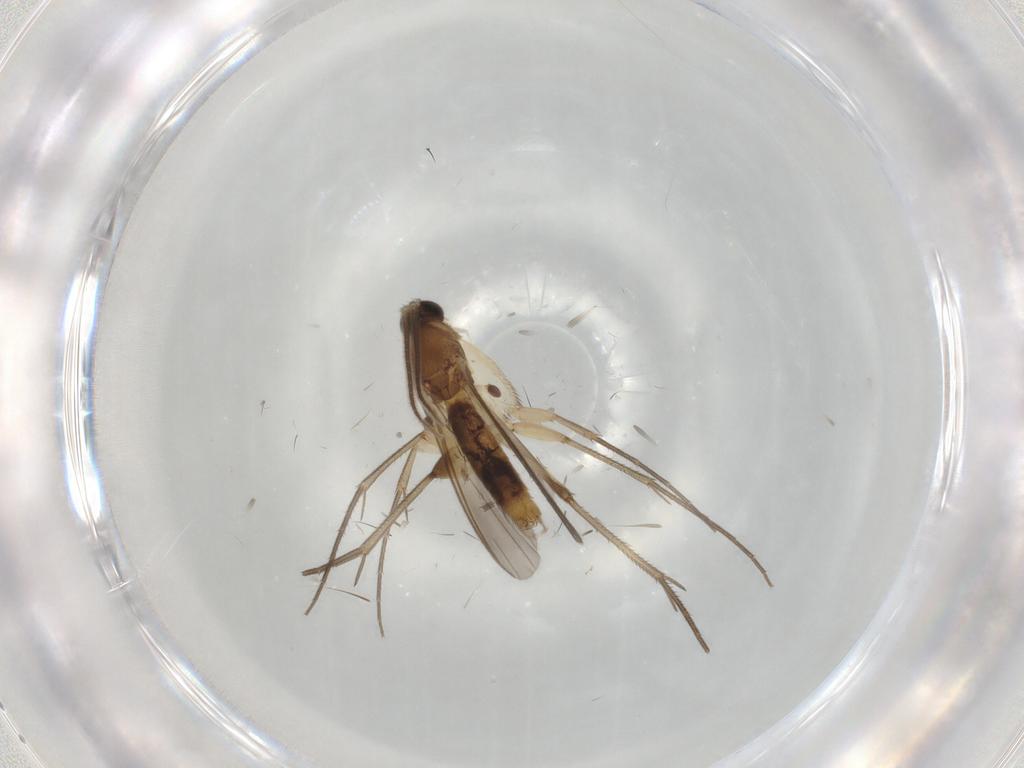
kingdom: Animalia
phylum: Arthropoda
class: Insecta
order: Diptera
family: Mycetophilidae
